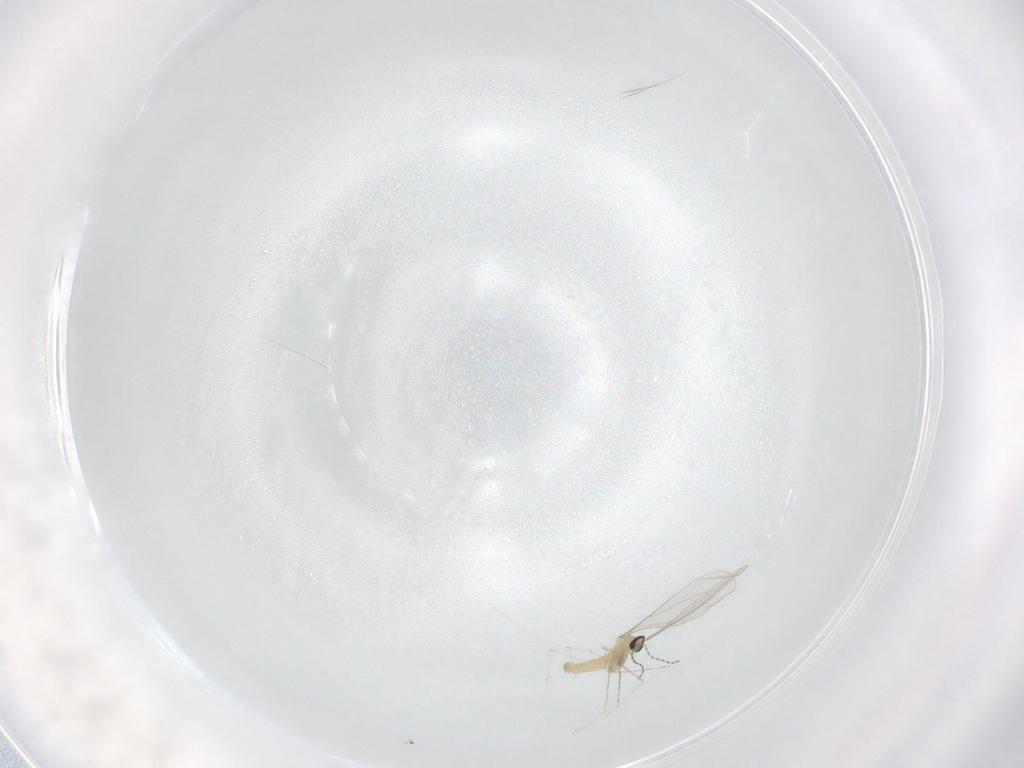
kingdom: Animalia
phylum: Arthropoda
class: Insecta
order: Diptera
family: Cecidomyiidae
